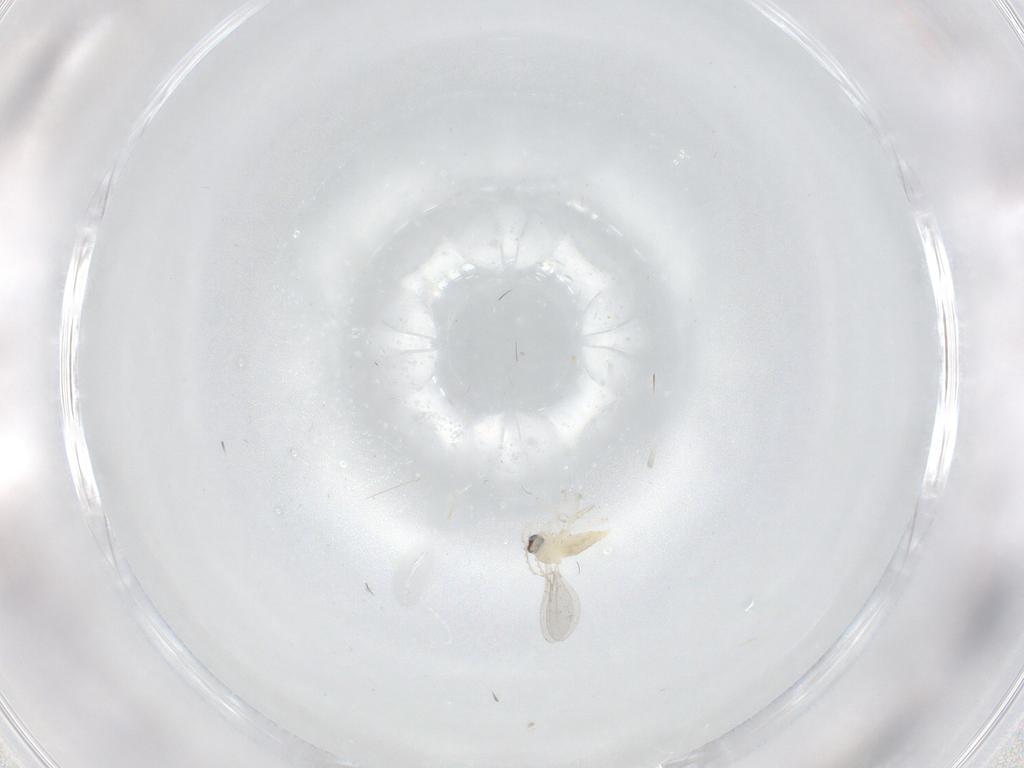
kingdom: Animalia
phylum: Arthropoda
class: Insecta
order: Diptera
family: Cecidomyiidae
